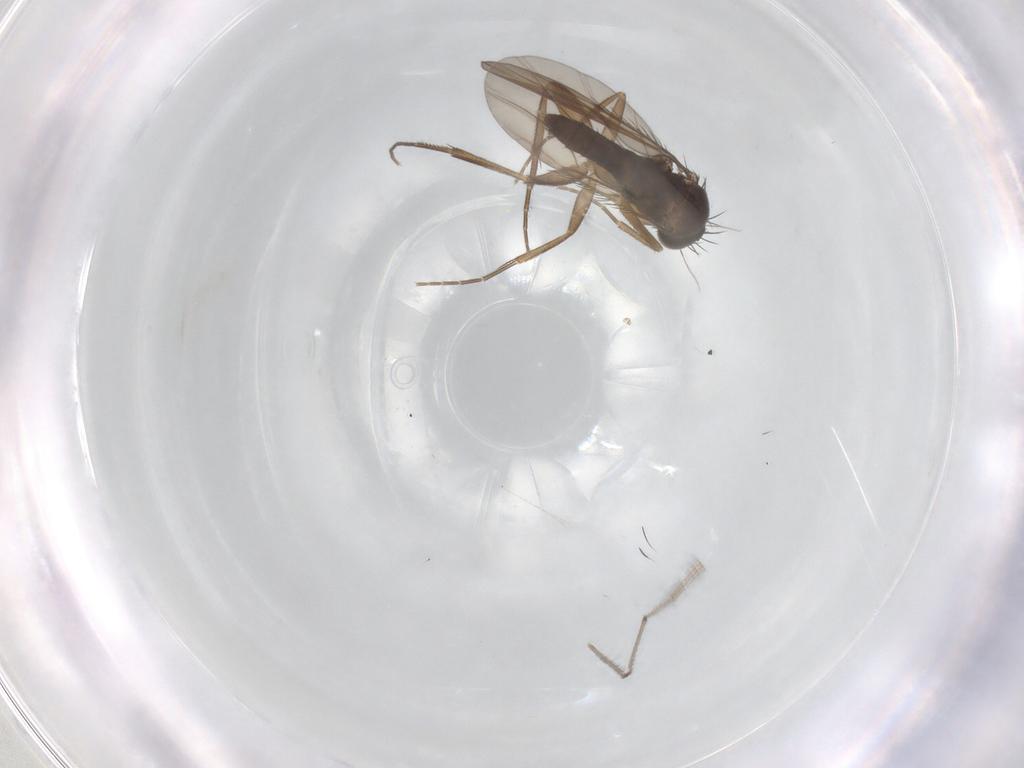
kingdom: Animalia
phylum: Arthropoda
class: Insecta
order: Diptera
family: Phoridae
